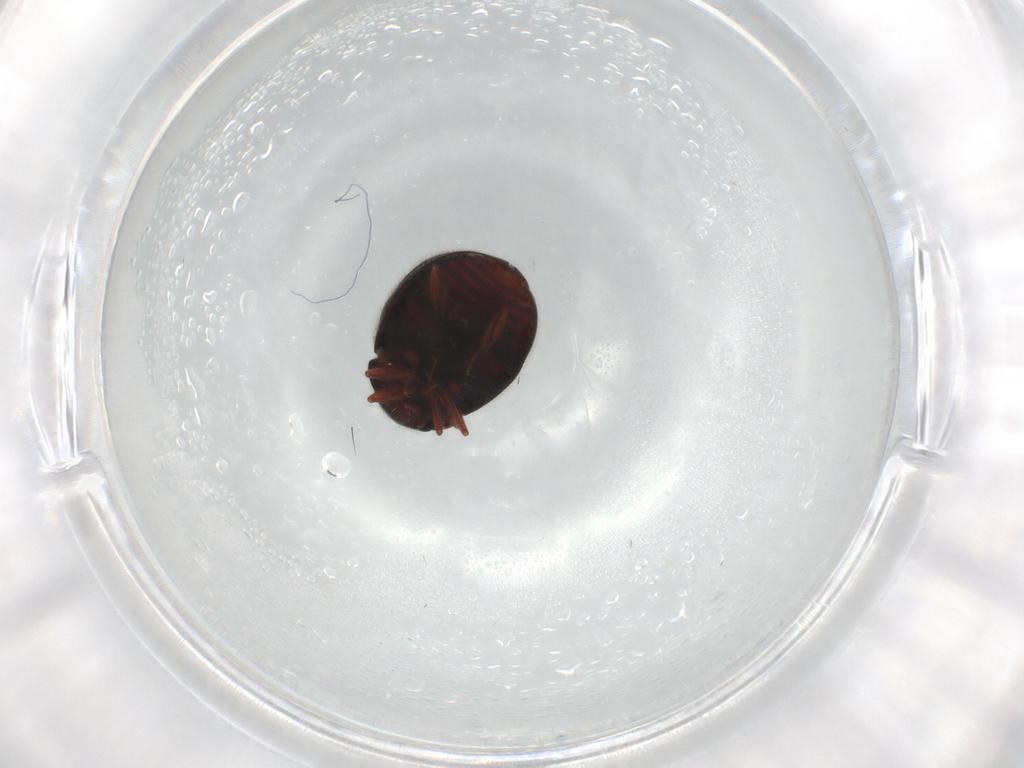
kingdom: Animalia
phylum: Arthropoda
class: Insecta
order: Coleoptera
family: Sphindidae
